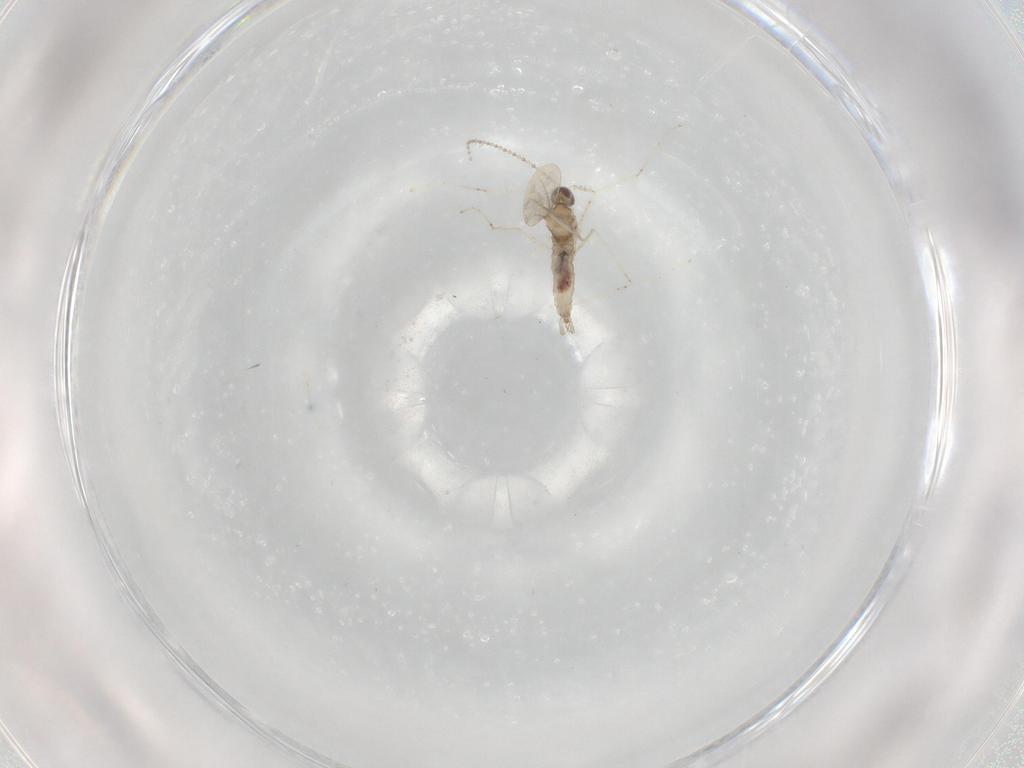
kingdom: Animalia
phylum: Arthropoda
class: Insecta
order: Diptera
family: Cecidomyiidae
